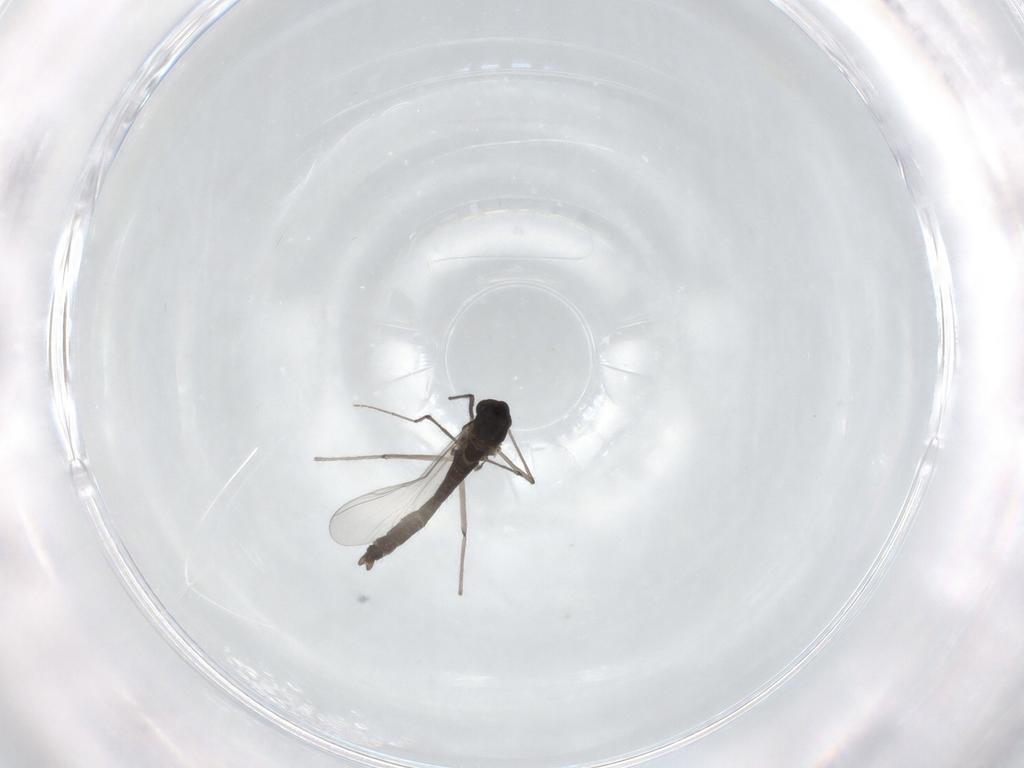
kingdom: Animalia
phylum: Arthropoda
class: Insecta
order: Diptera
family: Chironomidae
